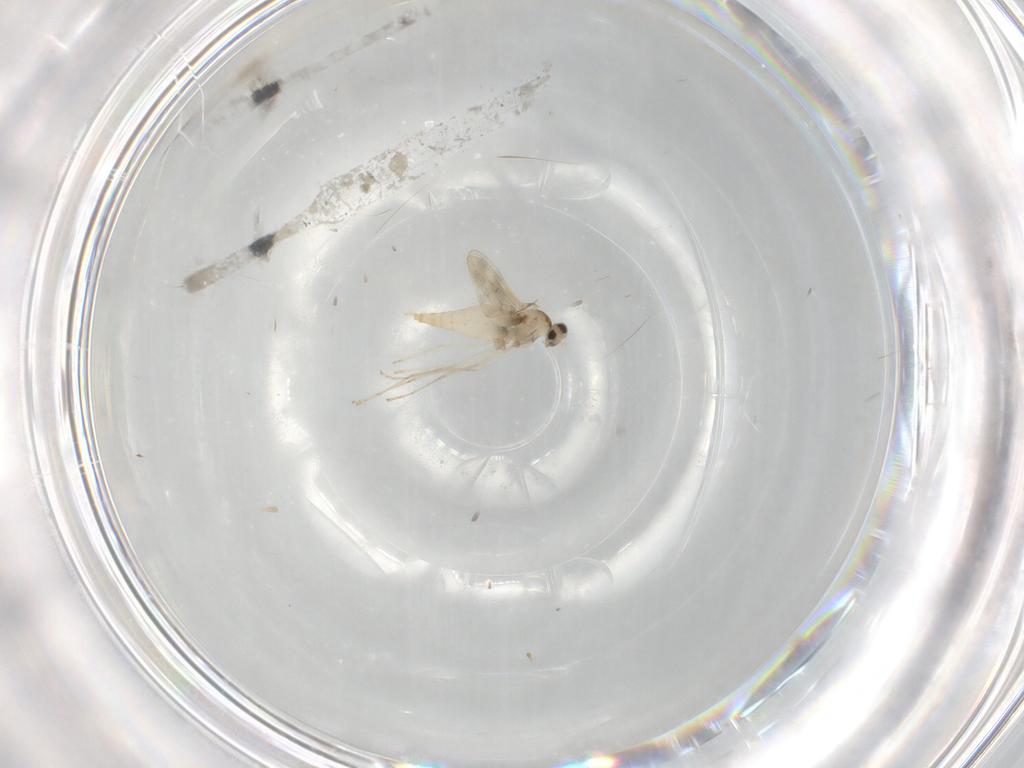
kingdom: Animalia
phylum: Arthropoda
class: Insecta
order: Diptera
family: Cecidomyiidae
